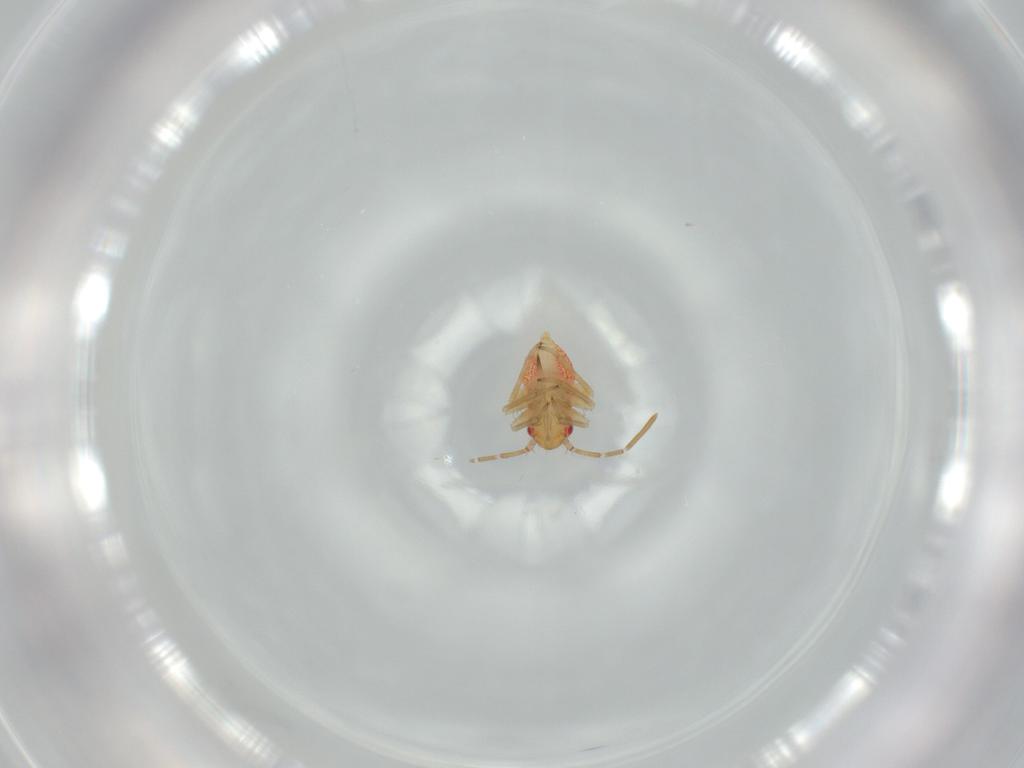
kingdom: Animalia
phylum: Arthropoda
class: Insecta
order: Hemiptera
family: Miridae
